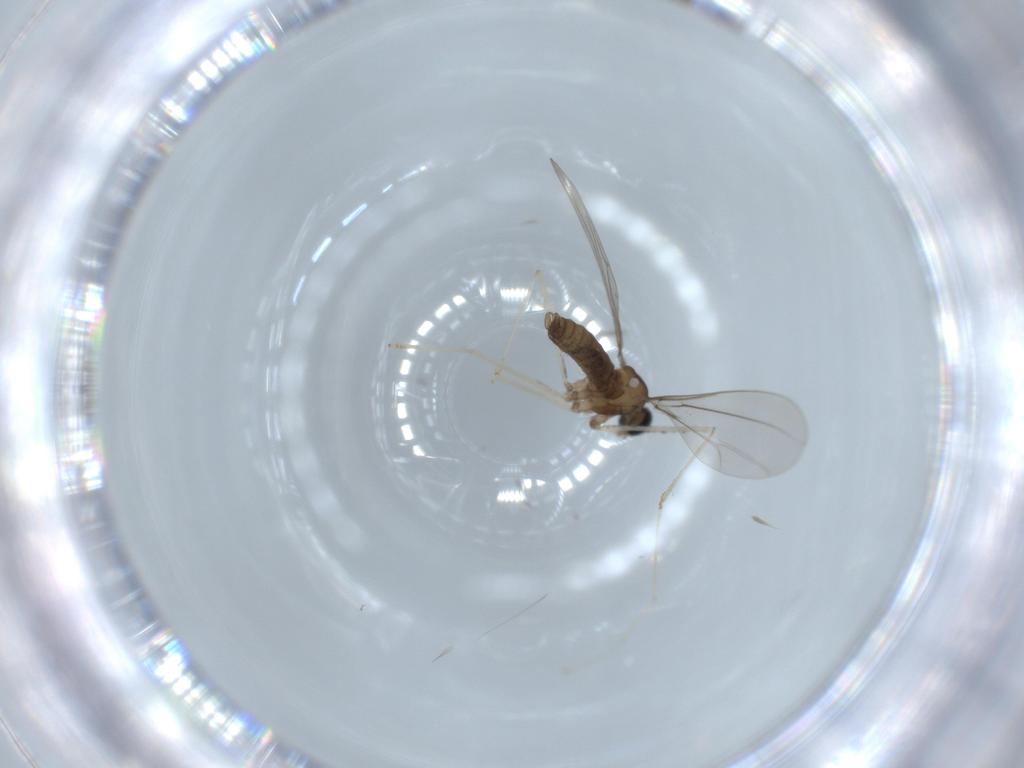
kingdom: Animalia
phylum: Arthropoda
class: Insecta
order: Diptera
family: Cecidomyiidae
